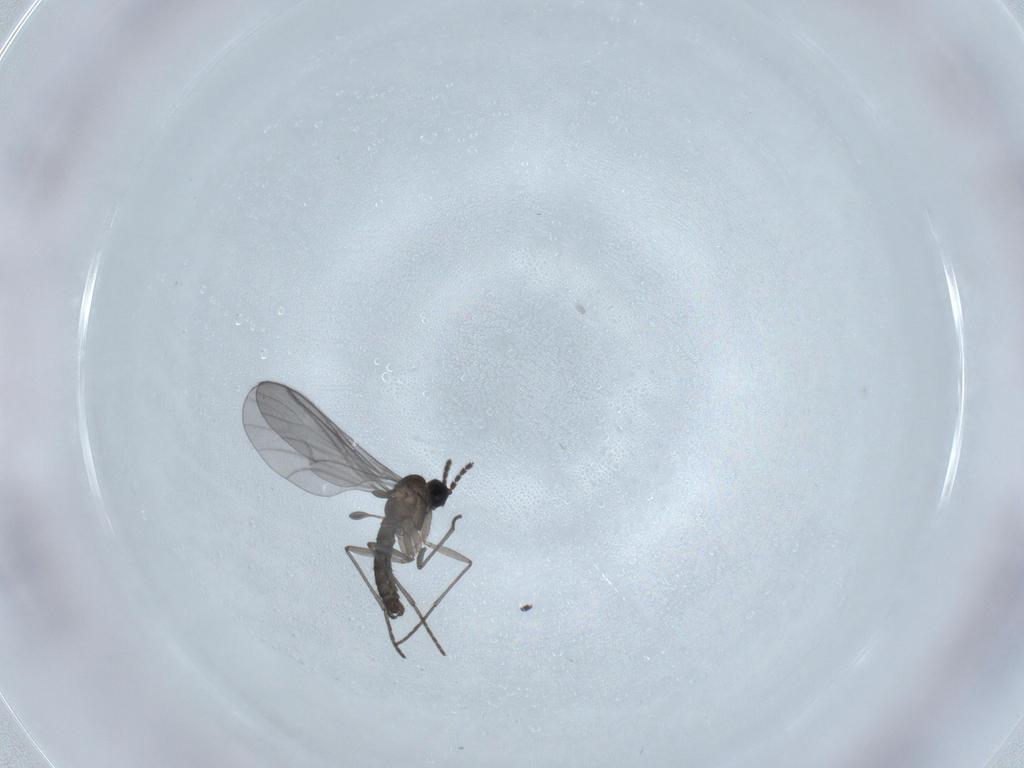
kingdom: Animalia
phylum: Arthropoda
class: Insecta
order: Diptera
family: Sciaridae
